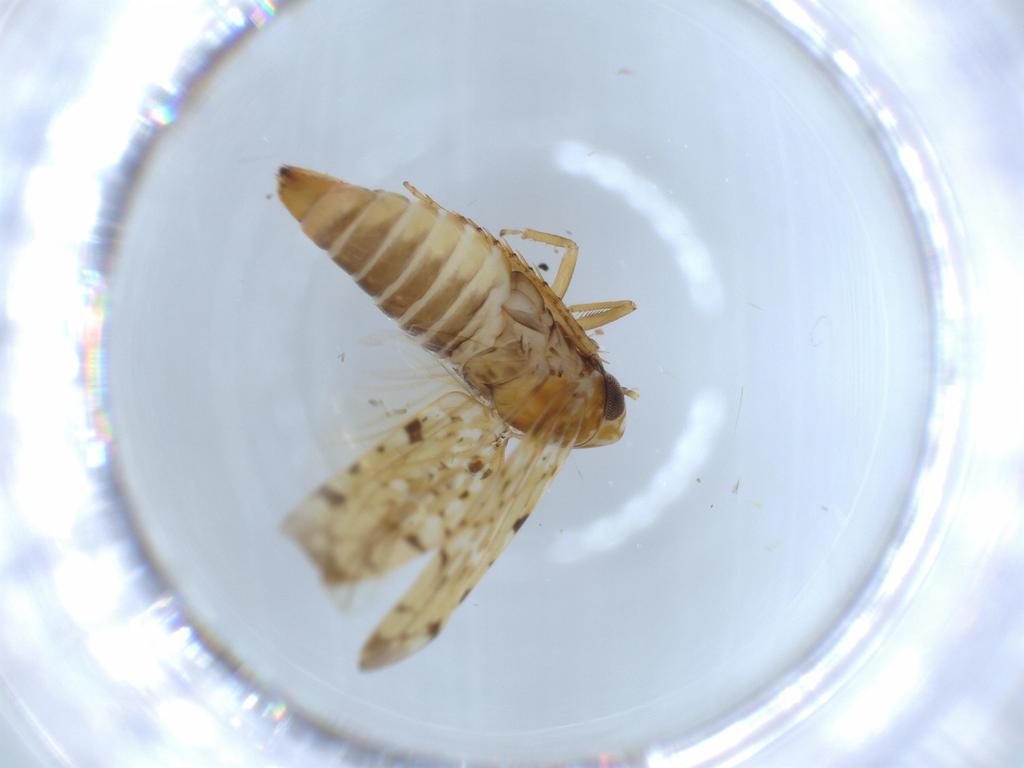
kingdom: Animalia
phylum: Arthropoda
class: Insecta
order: Hemiptera
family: Cicadellidae
